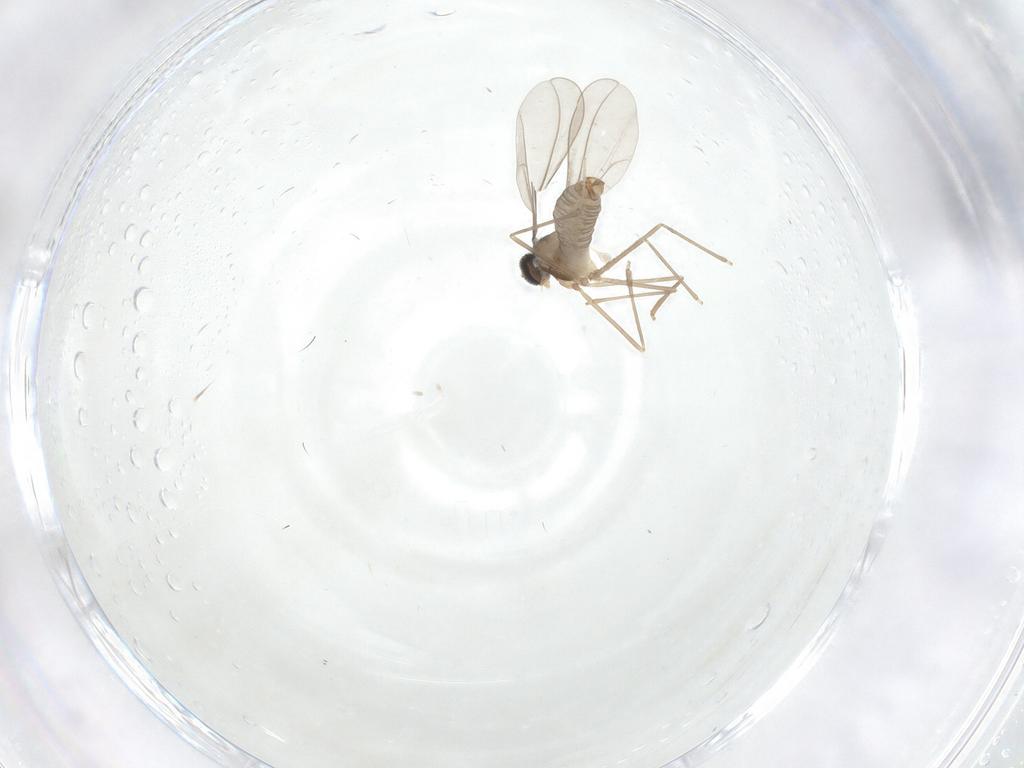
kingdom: Animalia
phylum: Arthropoda
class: Insecta
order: Diptera
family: Cecidomyiidae
